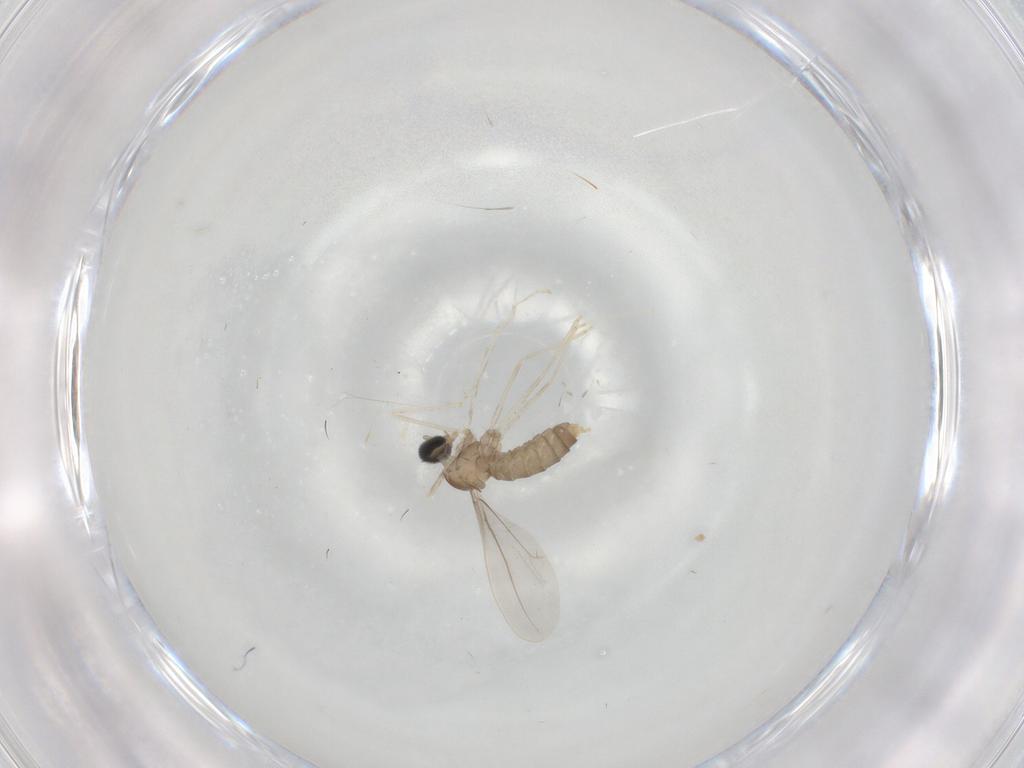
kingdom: Animalia
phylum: Arthropoda
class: Insecta
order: Diptera
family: Cecidomyiidae
